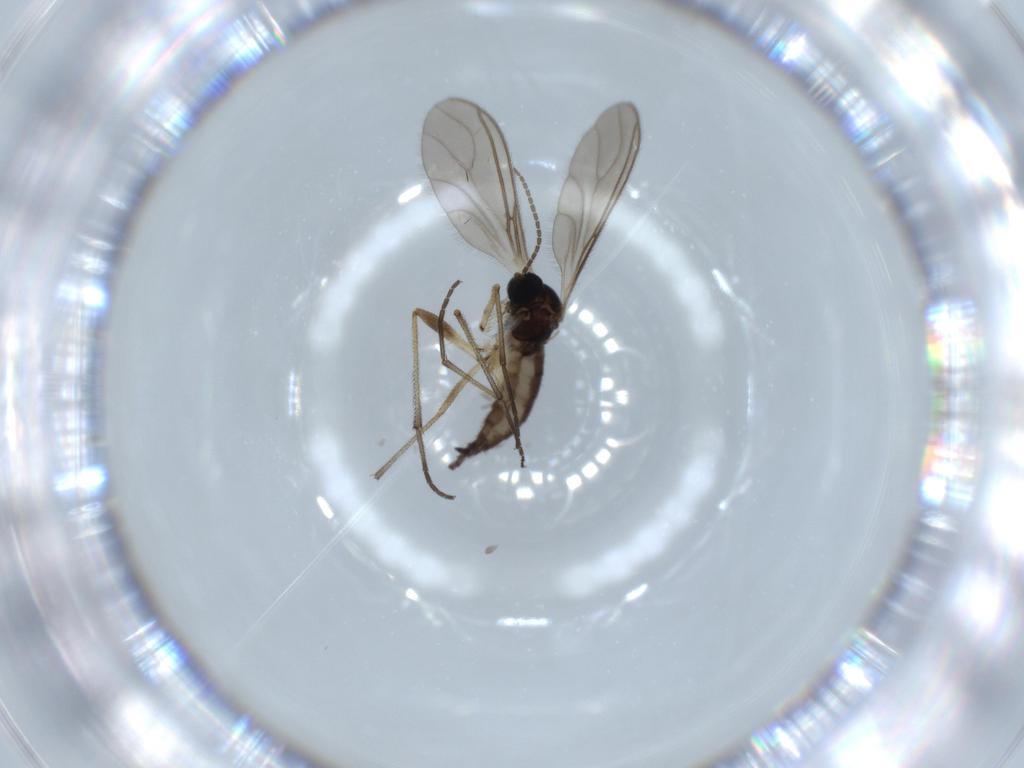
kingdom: Animalia
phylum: Arthropoda
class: Insecta
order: Diptera
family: Sciaridae
